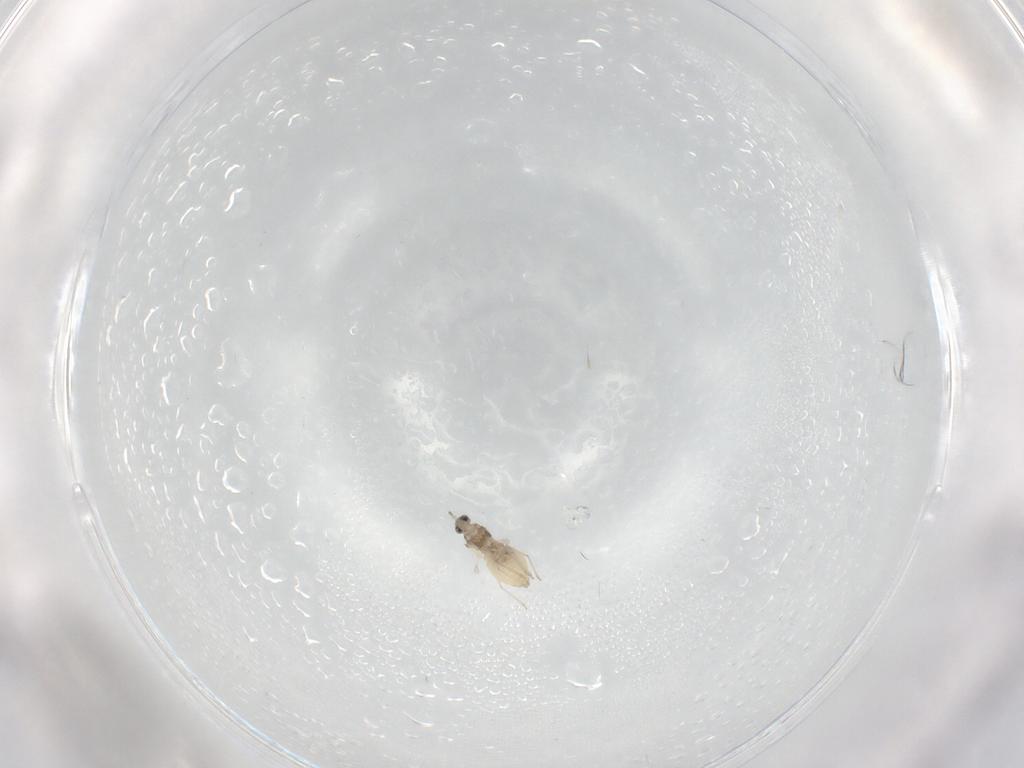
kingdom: Animalia
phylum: Arthropoda
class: Insecta
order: Diptera
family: Cecidomyiidae
